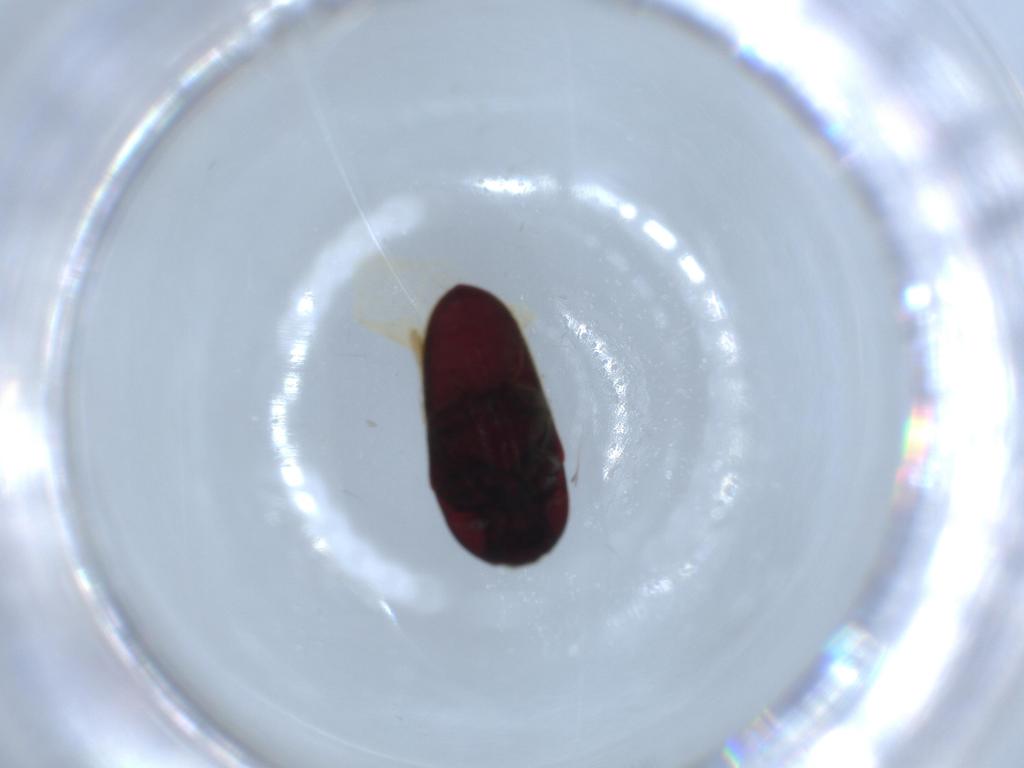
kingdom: Animalia
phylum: Arthropoda
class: Insecta
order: Coleoptera
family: Throscidae
